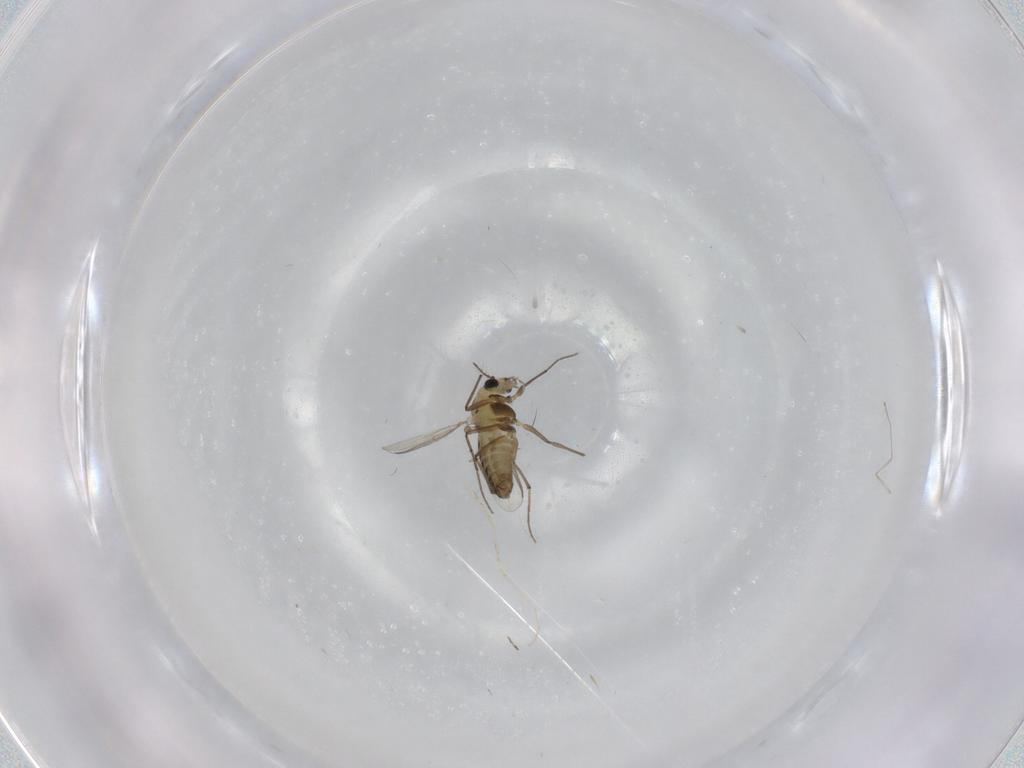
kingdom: Animalia
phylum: Arthropoda
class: Insecta
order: Diptera
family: Chironomidae
